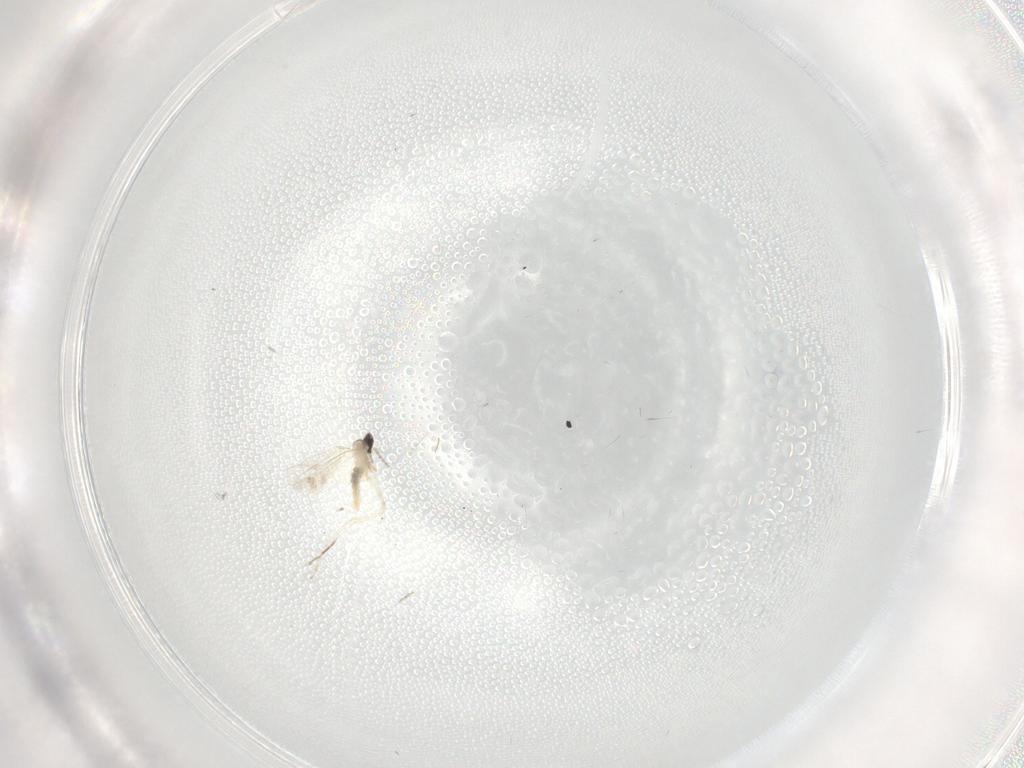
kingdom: Animalia
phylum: Arthropoda
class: Insecta
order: Diptera
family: Cecidomyiidae
